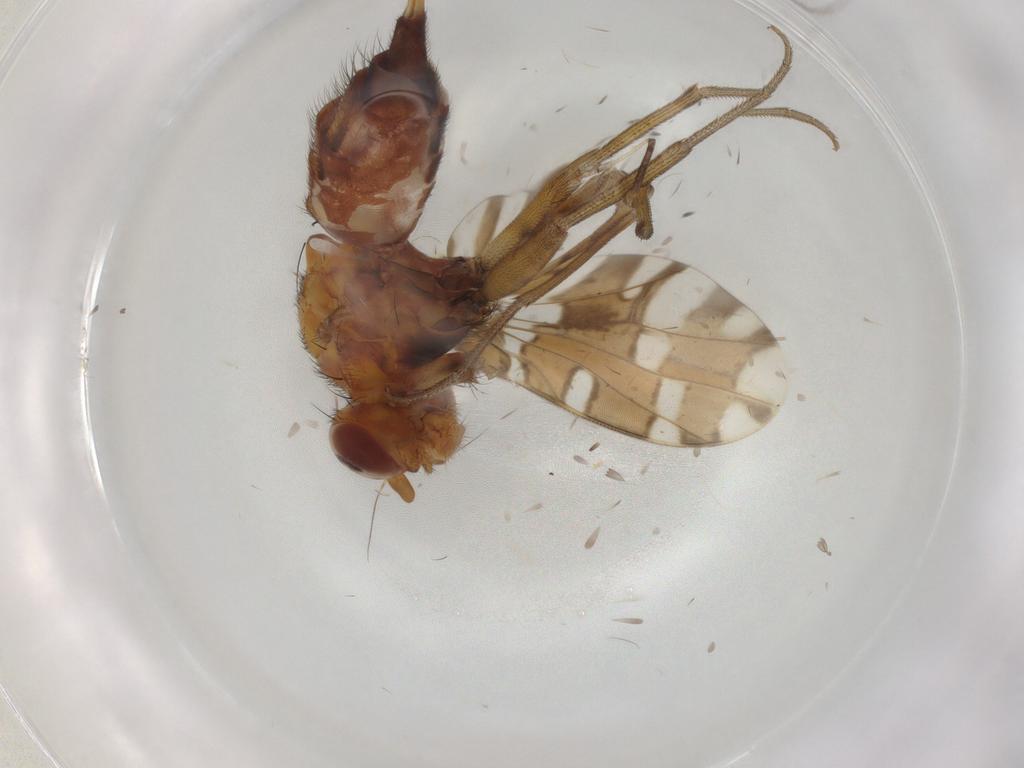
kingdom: Animalia
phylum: Arthropoda
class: Insecta
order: Diptera
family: Ulidiidae
